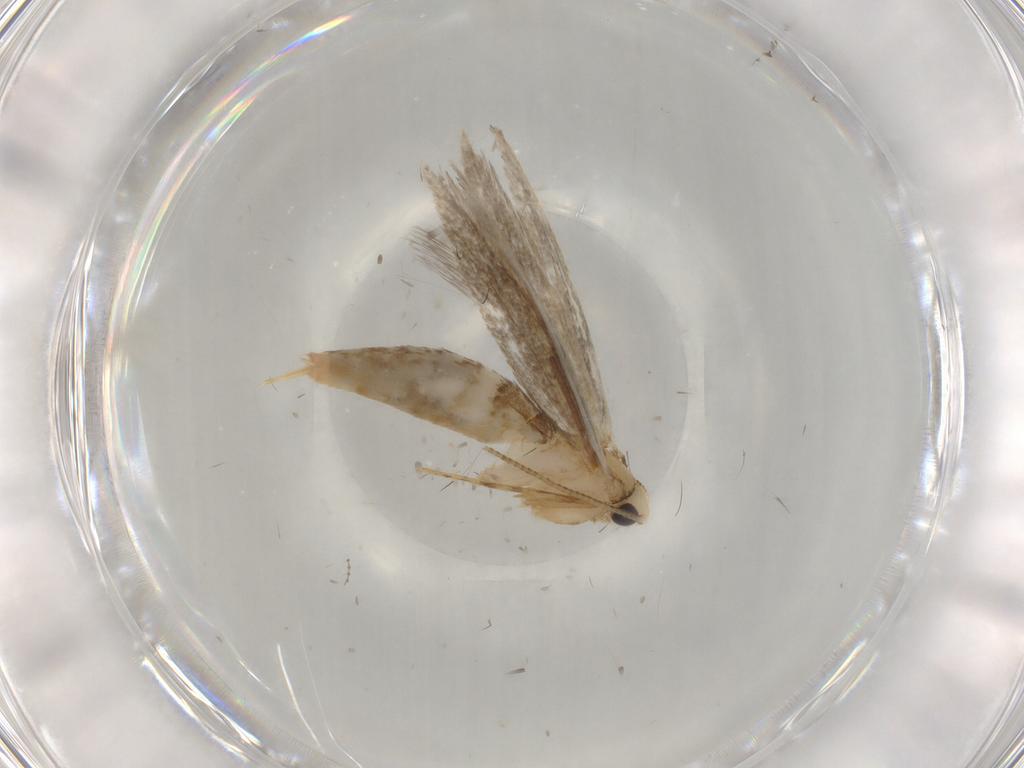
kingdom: Animalia
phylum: Arthropoda
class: Insecta
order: Lepidoptera
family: Tineidae
